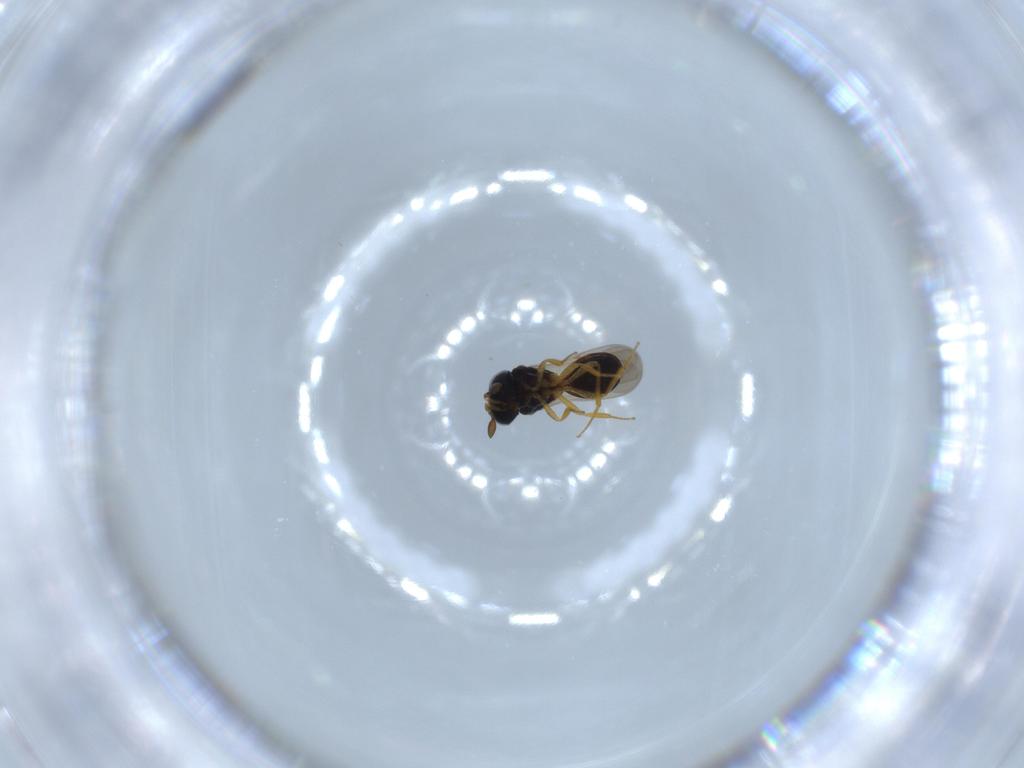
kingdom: Animalia
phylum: Arthropoda
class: Insecta
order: Hymenoptera
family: Scelionidae
